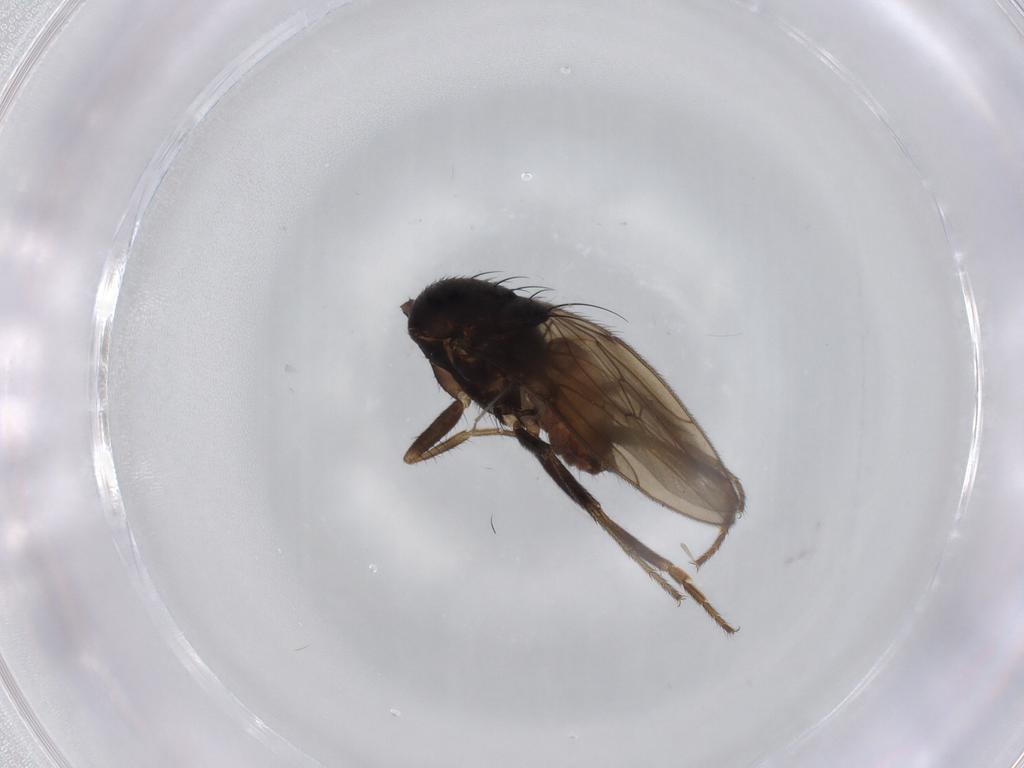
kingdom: Animalia
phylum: Arthropoda
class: Insecta
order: Diptera
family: Sphaeroceridae
